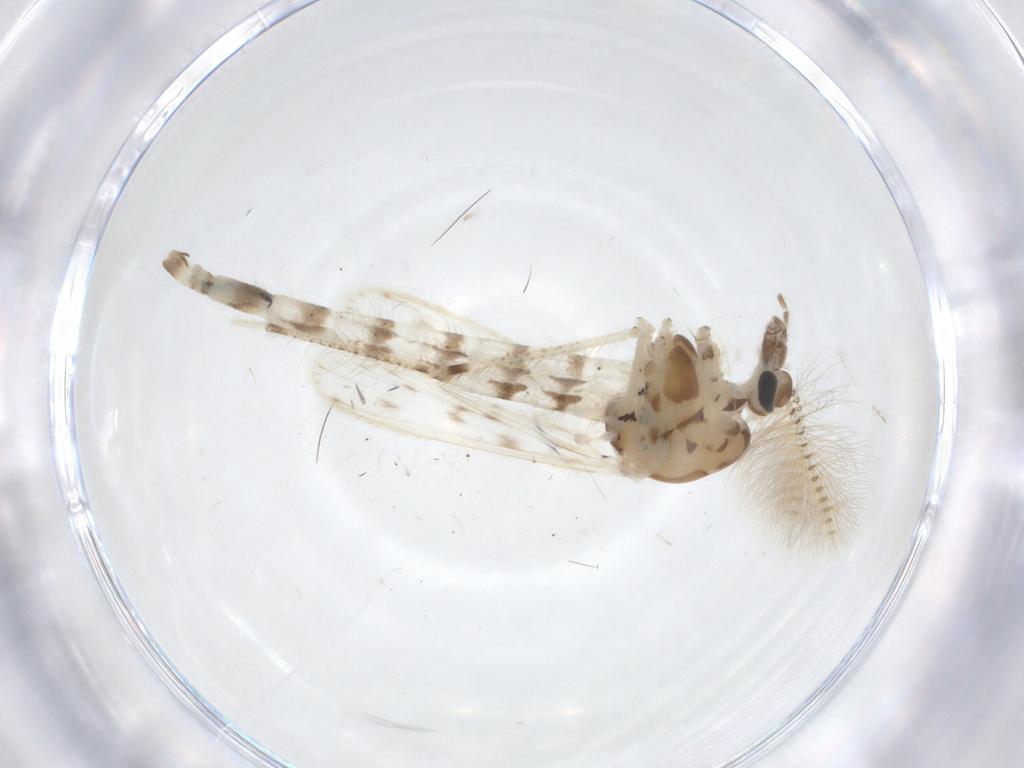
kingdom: Animalia
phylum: Arthropoda
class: Insecta
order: Diptera
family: Chaoboridae
